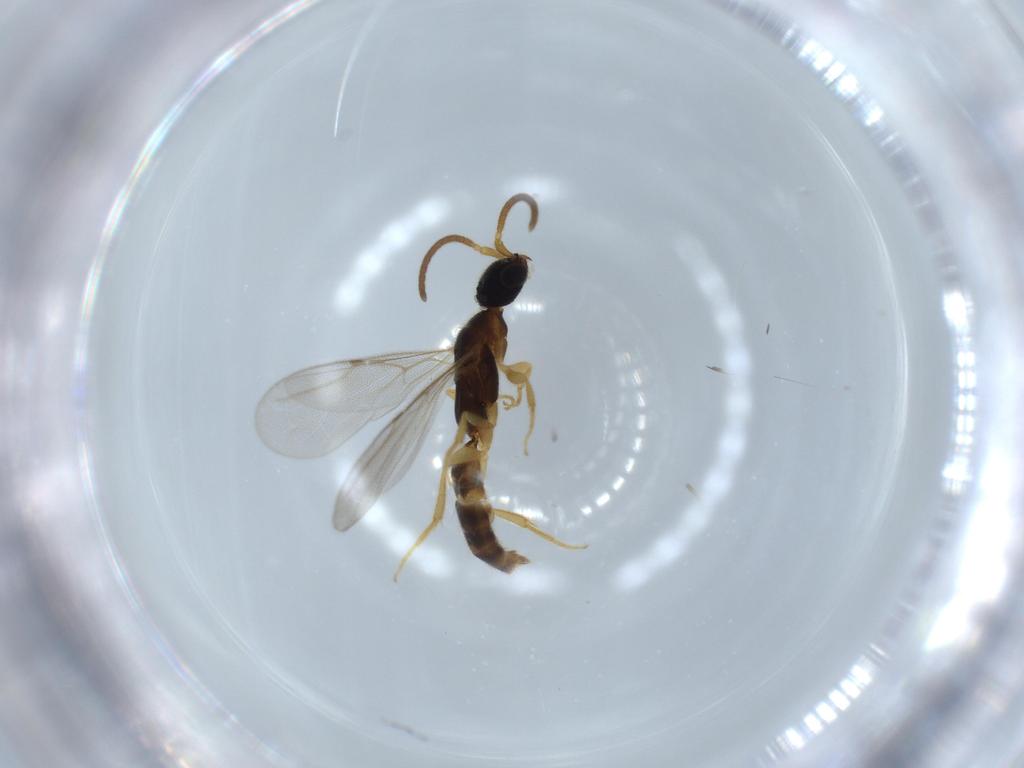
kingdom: Animalia
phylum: Arthropoda
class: Insecta
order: Hymenoptera
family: Bethylidae
